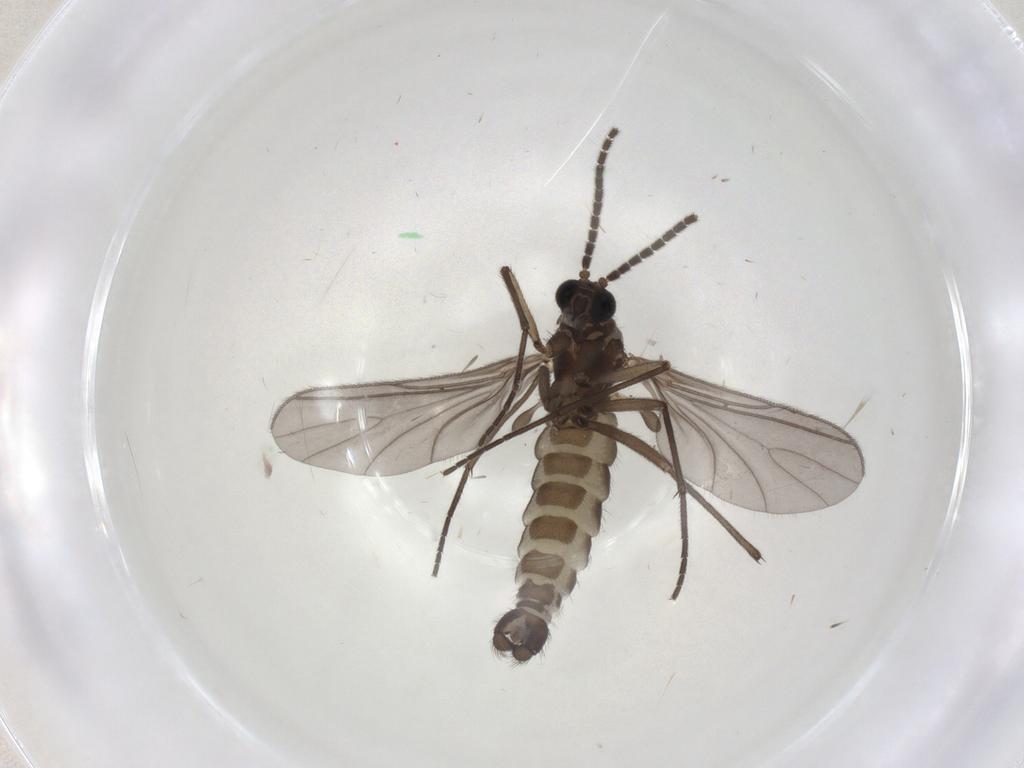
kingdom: Animalia
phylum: Arthropoda
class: Insecta
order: Diptera
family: Sciaridae
